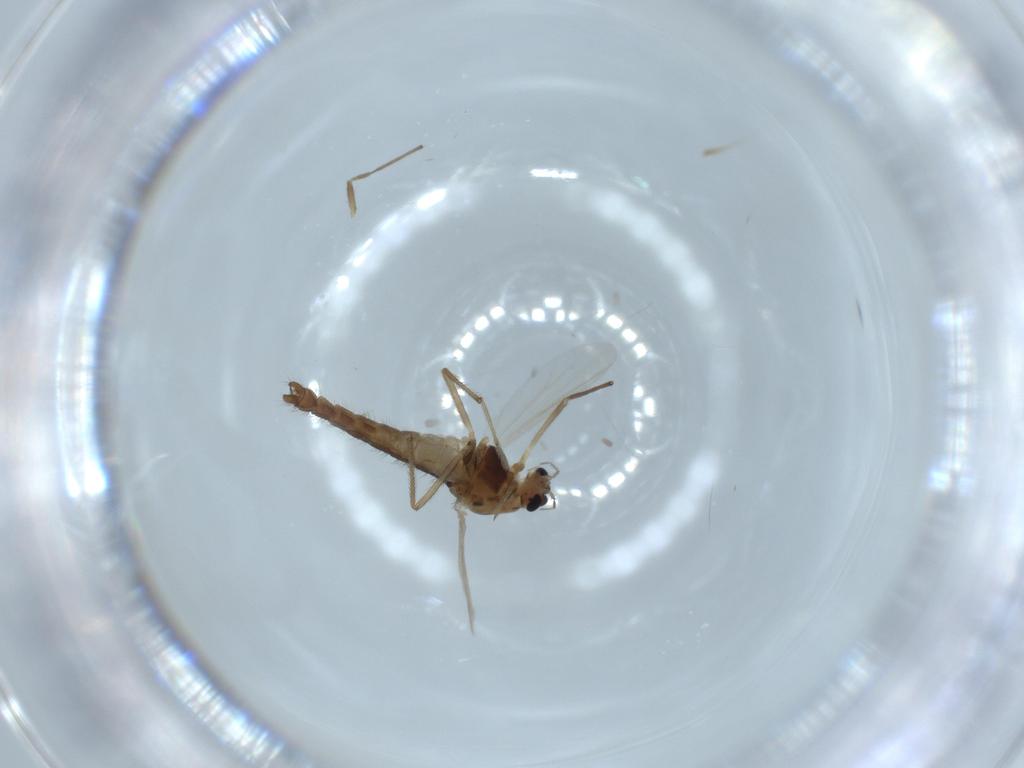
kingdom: Animalia
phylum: Arthropoda
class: Insecta
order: Diptera
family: Chironomidae
